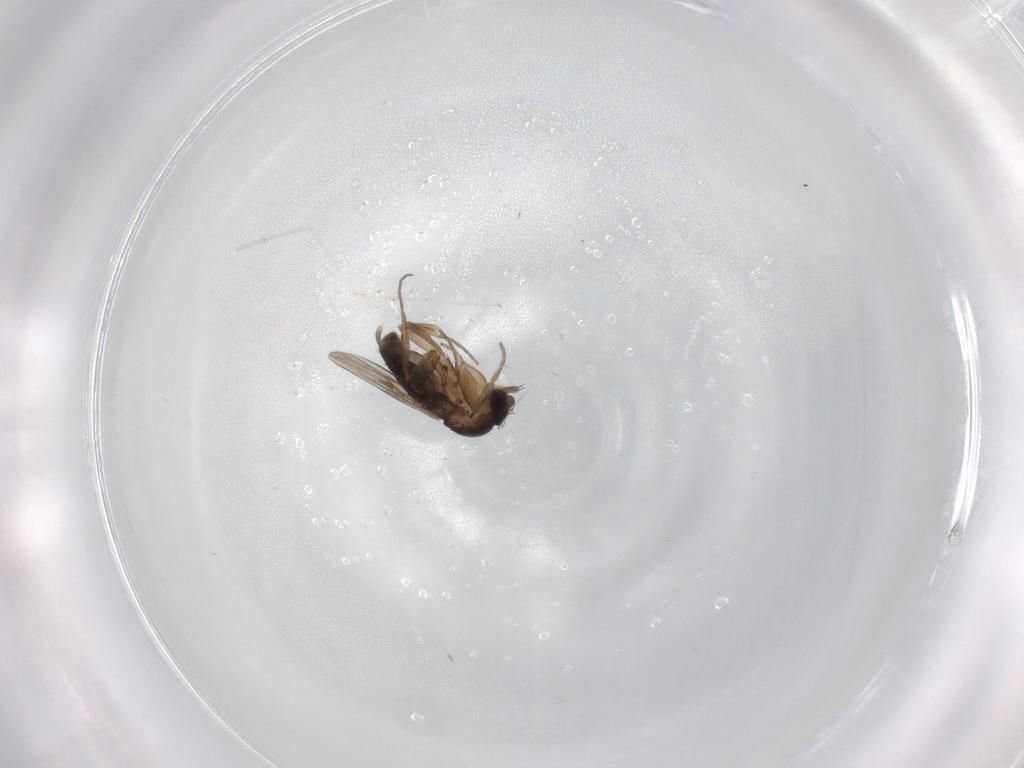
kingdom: Animalia
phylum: Arthropoda
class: Insecta
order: Diptera
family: Phoridae
